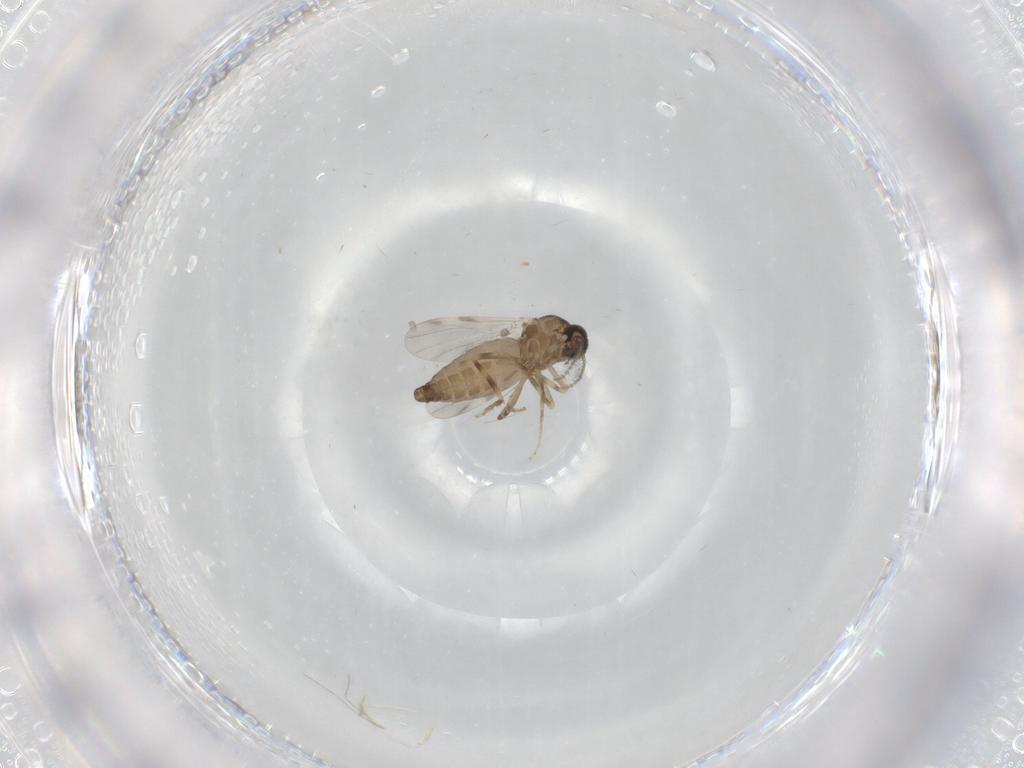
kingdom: Animalia
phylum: Arthropoda
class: Insecta
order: Diptera
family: Ceratopogonidae
